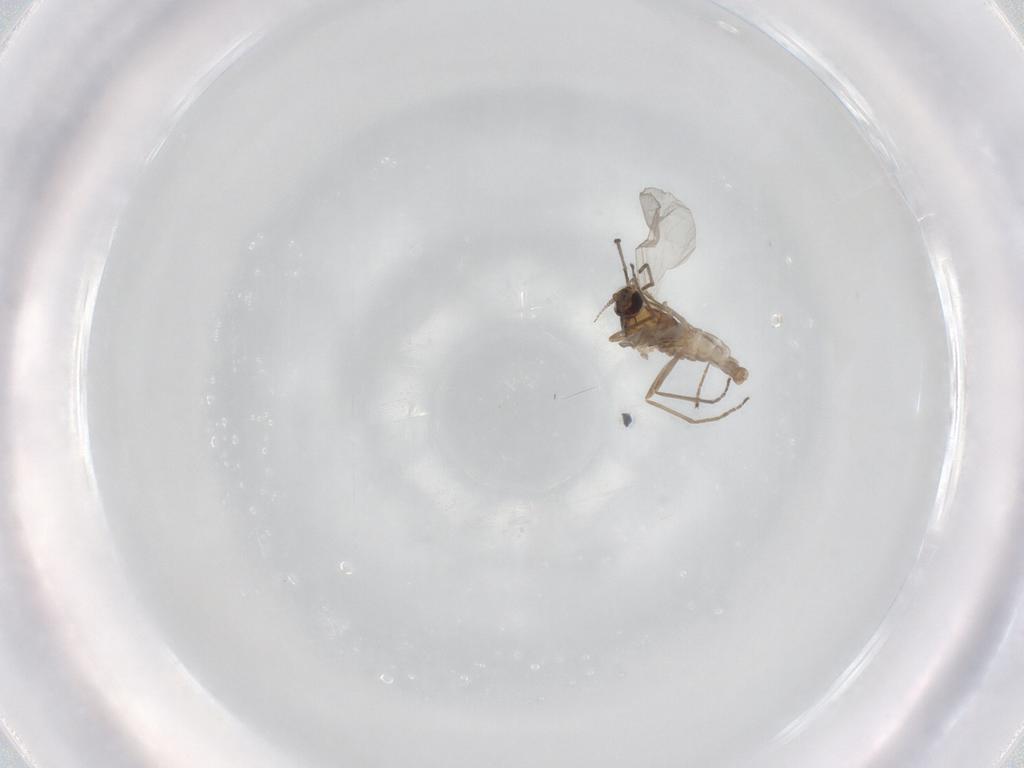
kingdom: Animalia
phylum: Arthropoda
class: Insecta
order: Diptera
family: Cecidomyiidae
